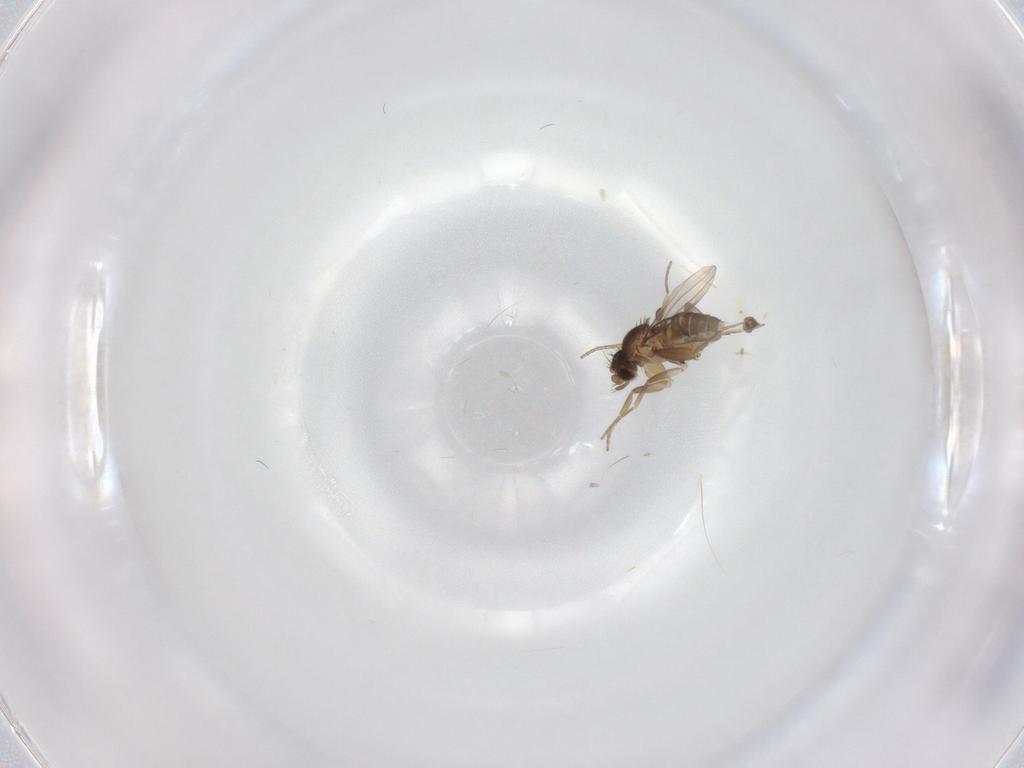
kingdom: Animalia
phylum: Arthropoda
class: Insecta
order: Diptera
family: Phoridae
